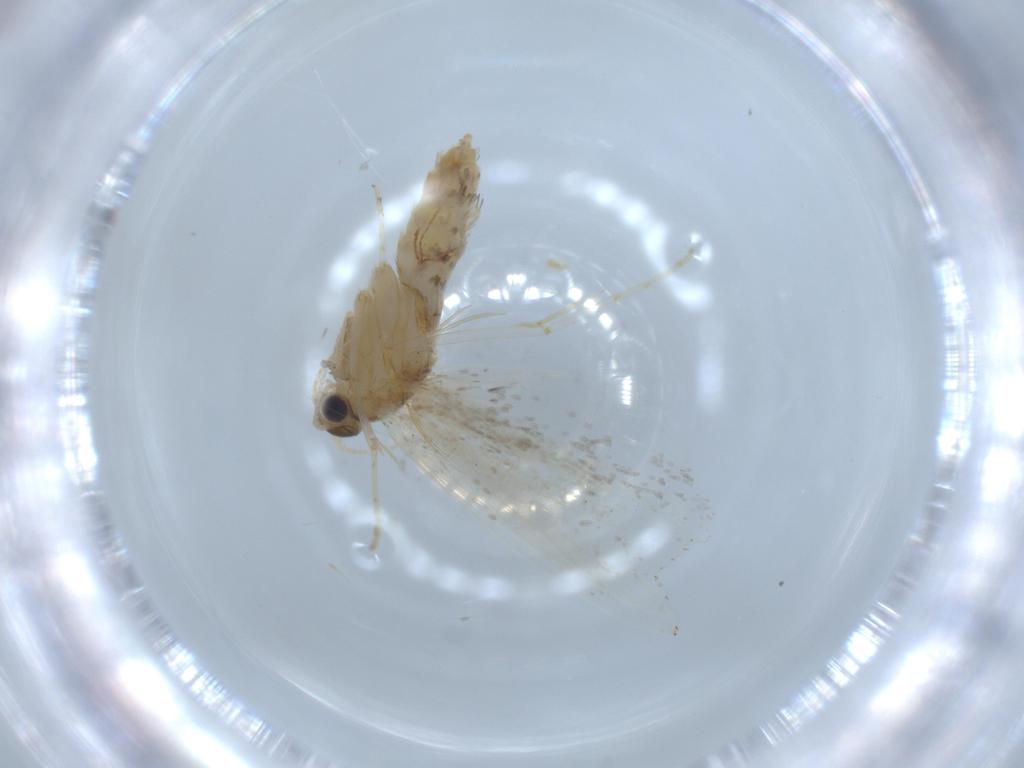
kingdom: Animalia
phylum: Arthropoda
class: Insecta
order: Lepidoptera
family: Tineidae
